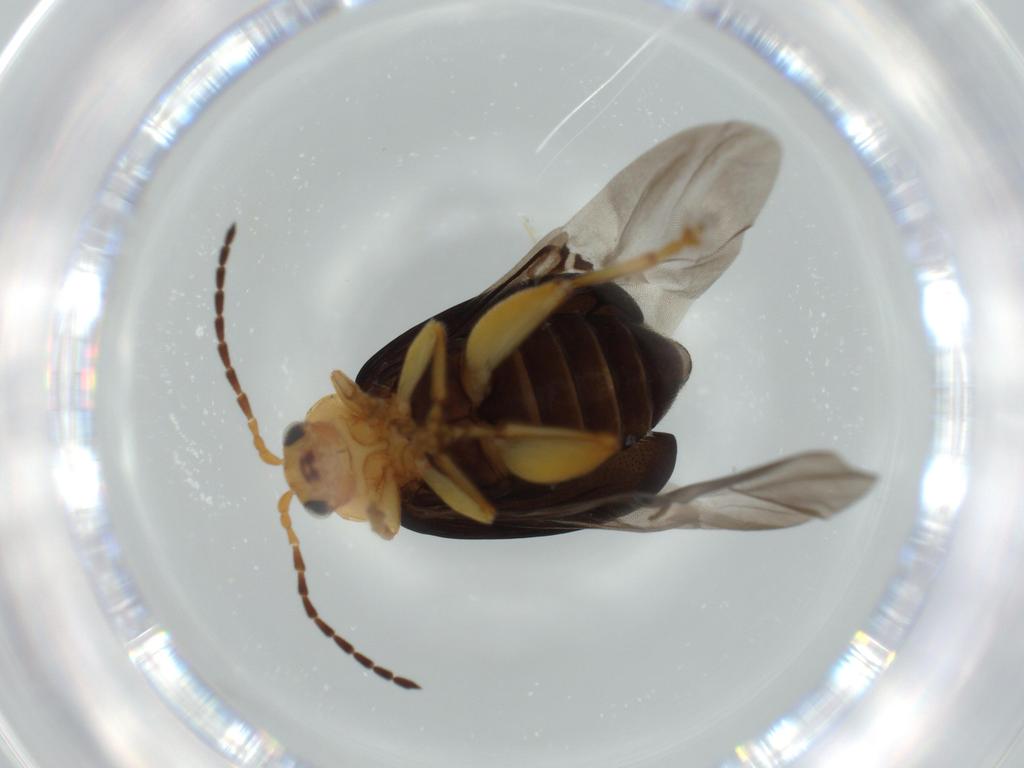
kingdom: Animalia
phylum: Arthropoda
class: Insecta
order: Coleoptera
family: Chrysomelidae
